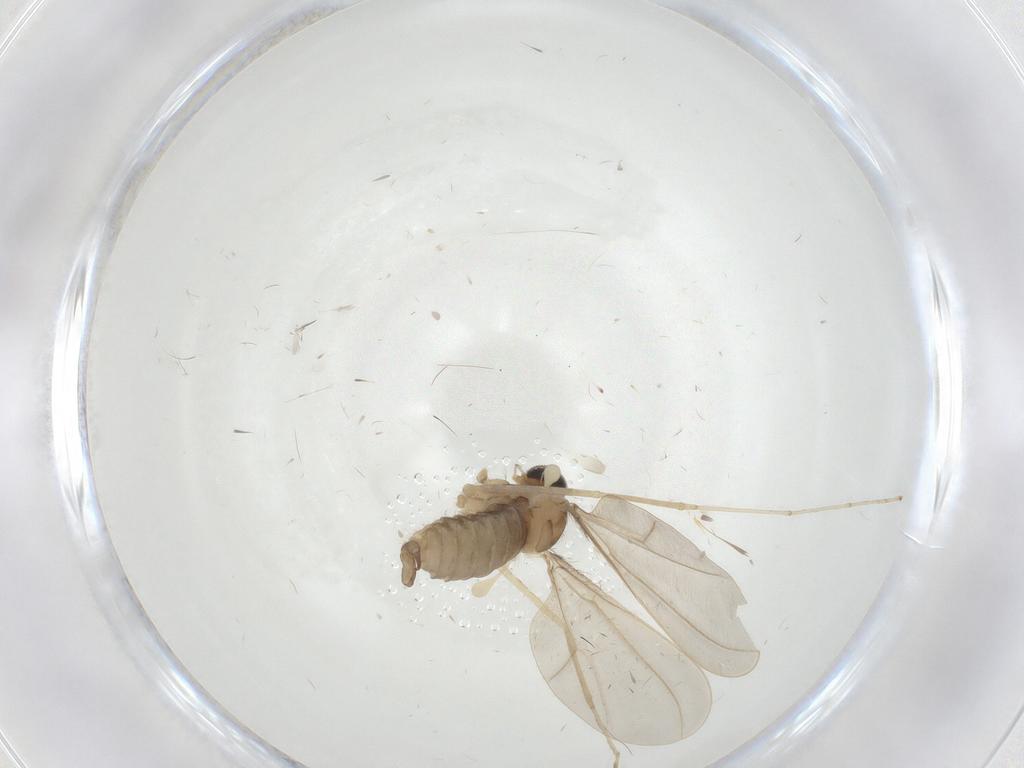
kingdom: Animalia
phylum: Arthropoda
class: Insecta
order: Diptera
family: Cecidomyiidae
